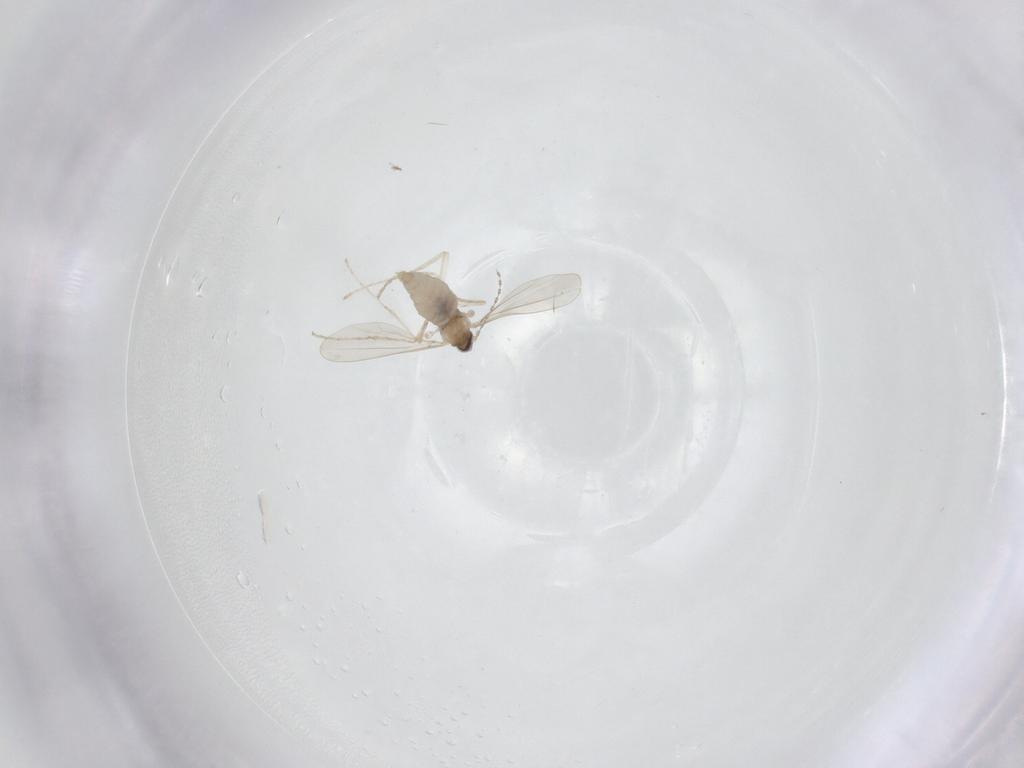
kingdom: Animalia
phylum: Arthropoda
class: Insecta
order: Diptera
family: Cecidomyiidae
